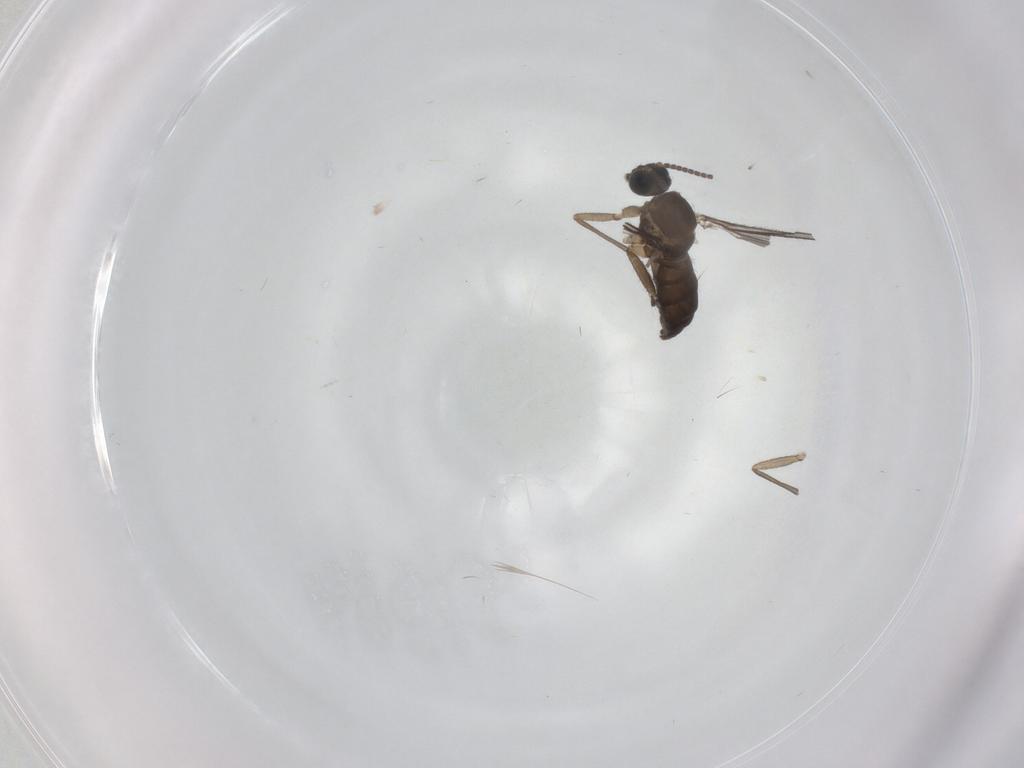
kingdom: Animalia
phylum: Arthropoda
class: Insecta
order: Diptera
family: Sciaridae
